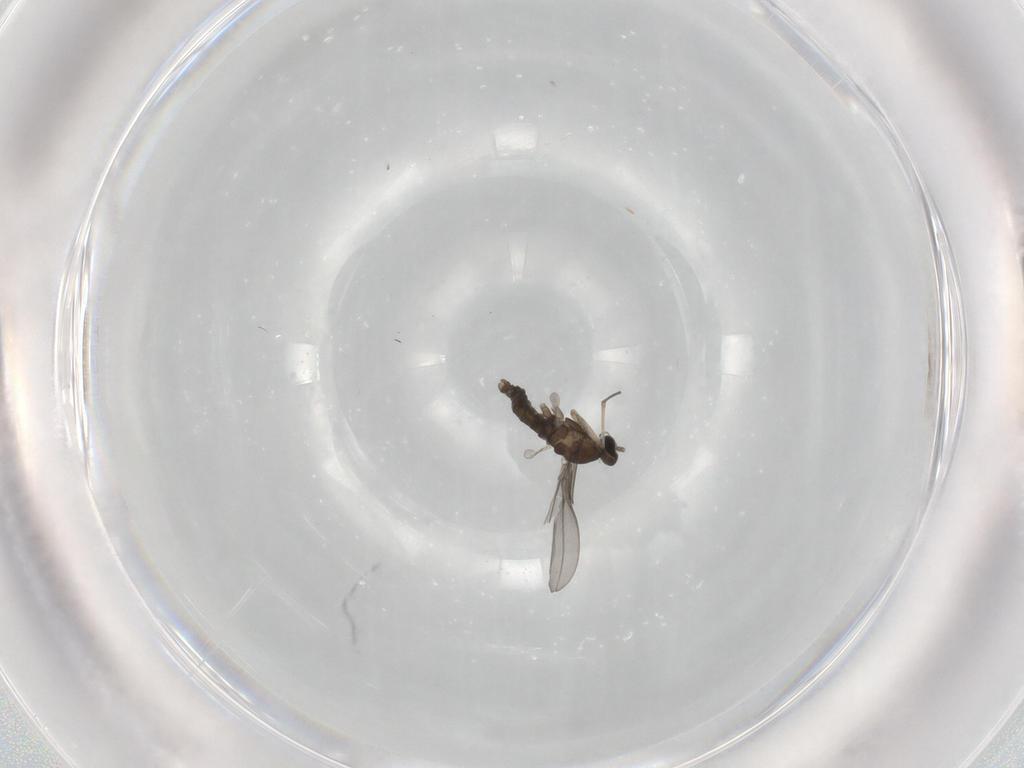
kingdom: Animalia
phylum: Arthropoda
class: Insecta
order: Diptera
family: Cecidomyiidae
